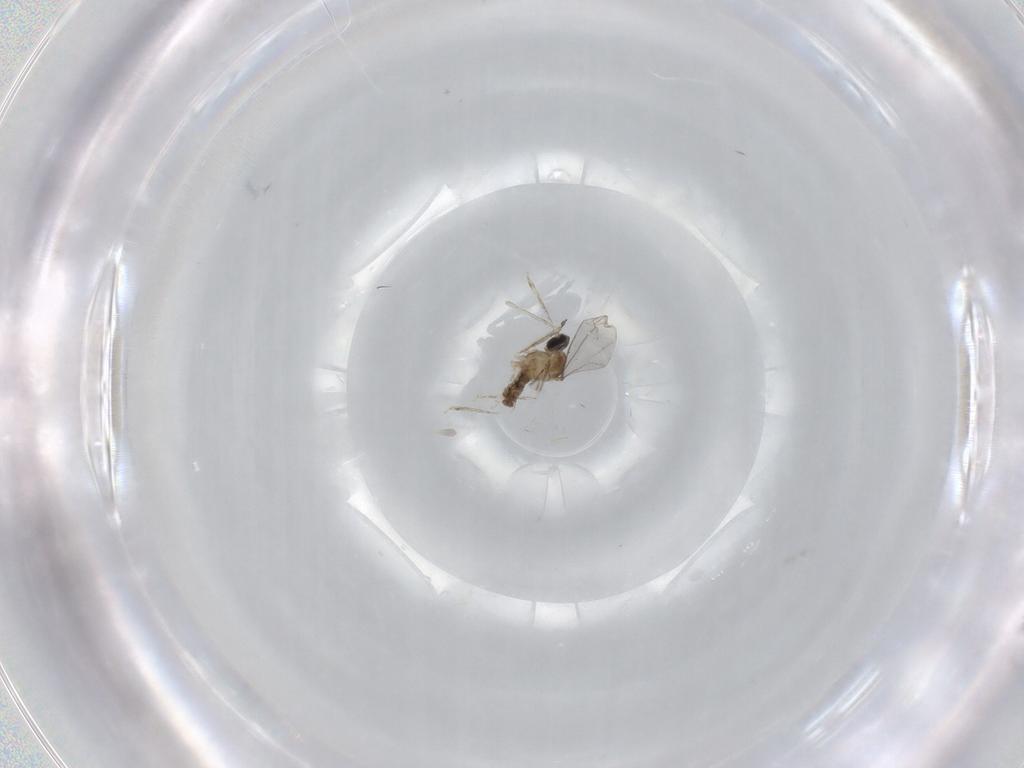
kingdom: Animalia
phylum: Arthropoda
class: Insecta
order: Diptera
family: Cecidomyiidae
